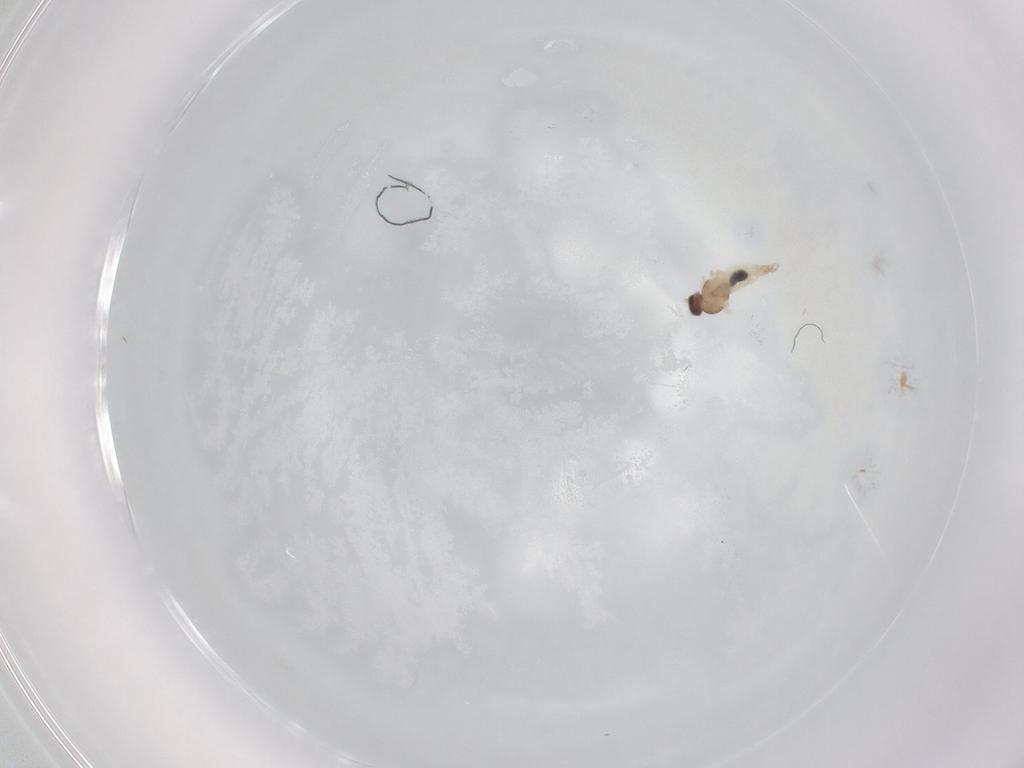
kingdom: Animalia
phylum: Arthropoda
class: Insecta
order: Diptera
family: Cecidomyiidae
